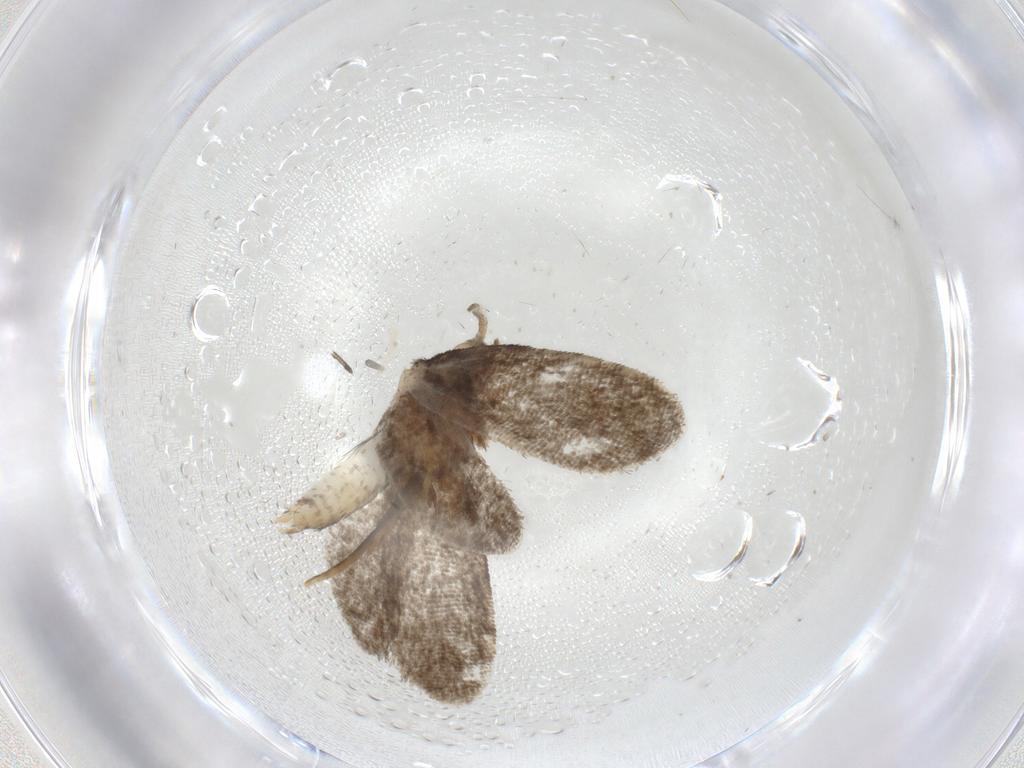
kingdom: Animalia
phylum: Arthropoda
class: Insecta
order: Lepidoptera
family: Psychidae
